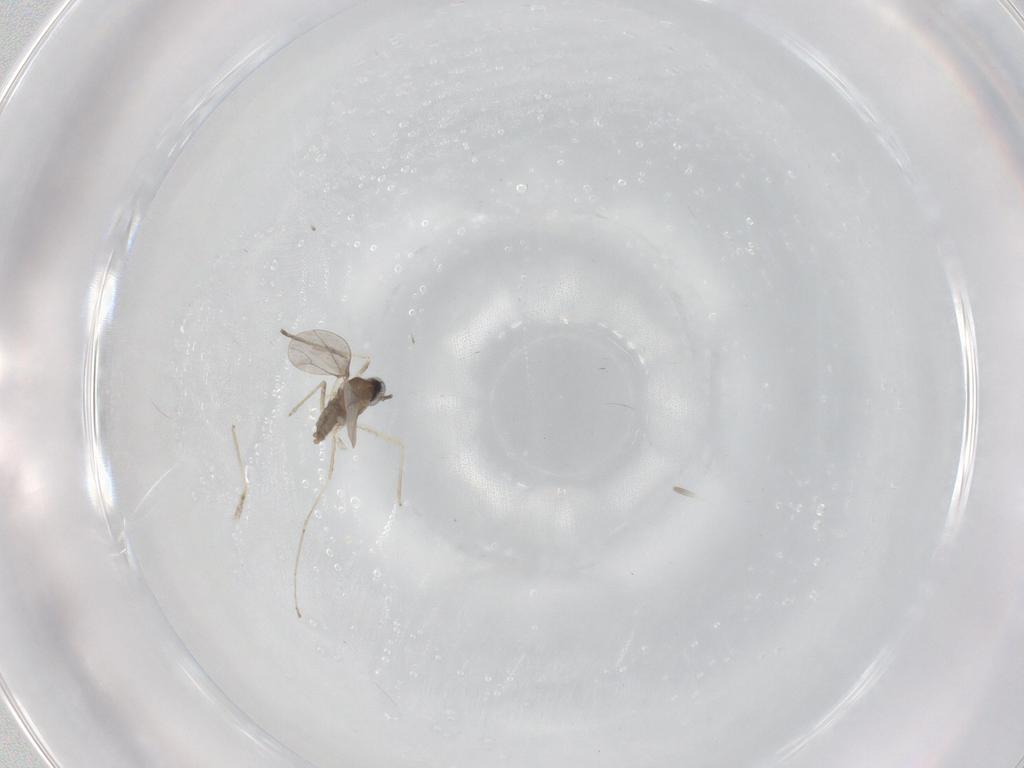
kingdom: Animalia
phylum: Arthropoda
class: Insecta
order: Diptera
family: Cecidomyiidae
